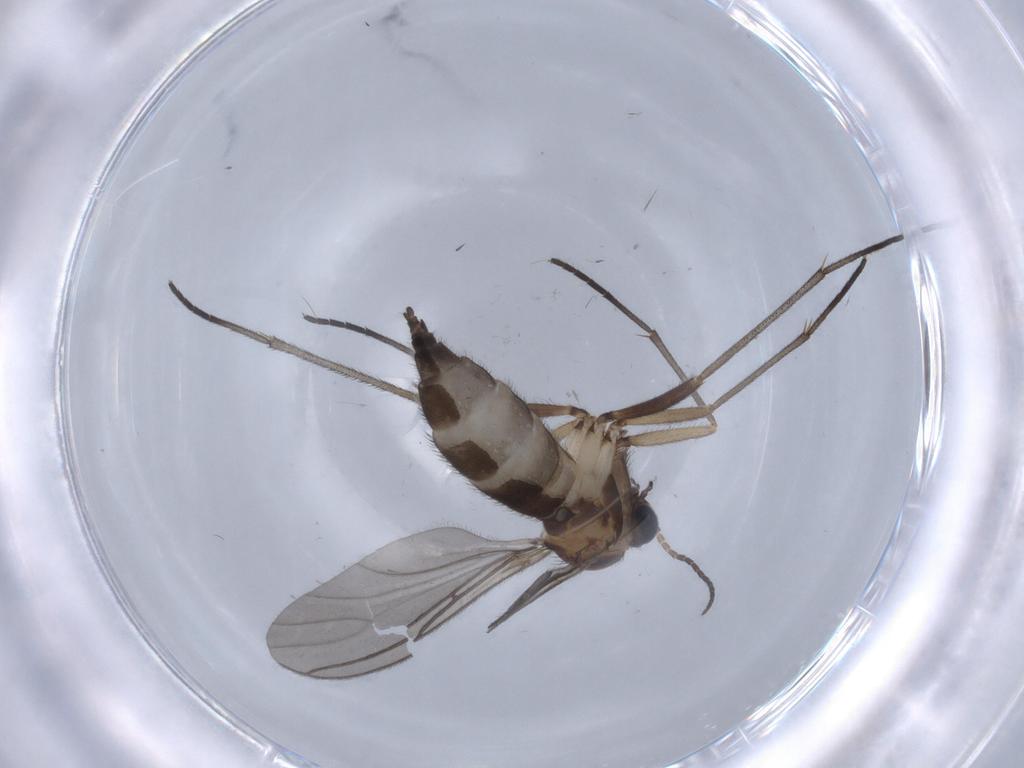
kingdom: Animalia
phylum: Arthropoda
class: Insecta
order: Diptera
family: Sciaridae
